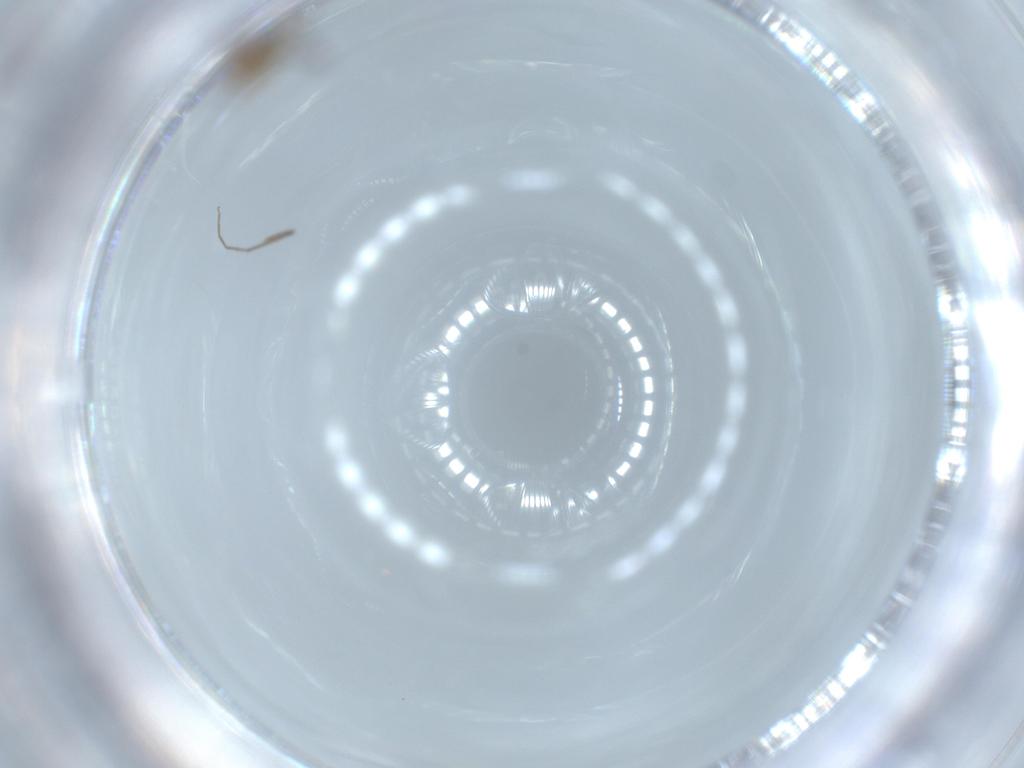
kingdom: Animalia
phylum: Arthropoda
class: Insecta
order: Diptera
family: Chironomidae
